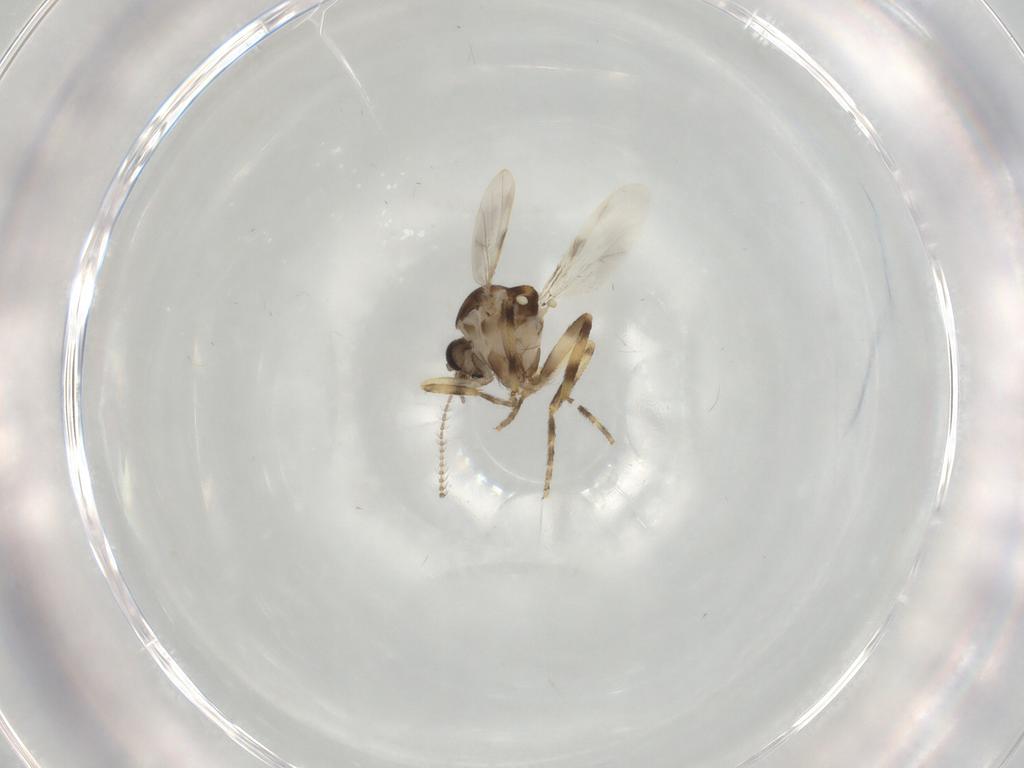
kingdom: Animalia
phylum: Arthropoda
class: Insecta
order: Diptera
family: Ceratopogonidae
